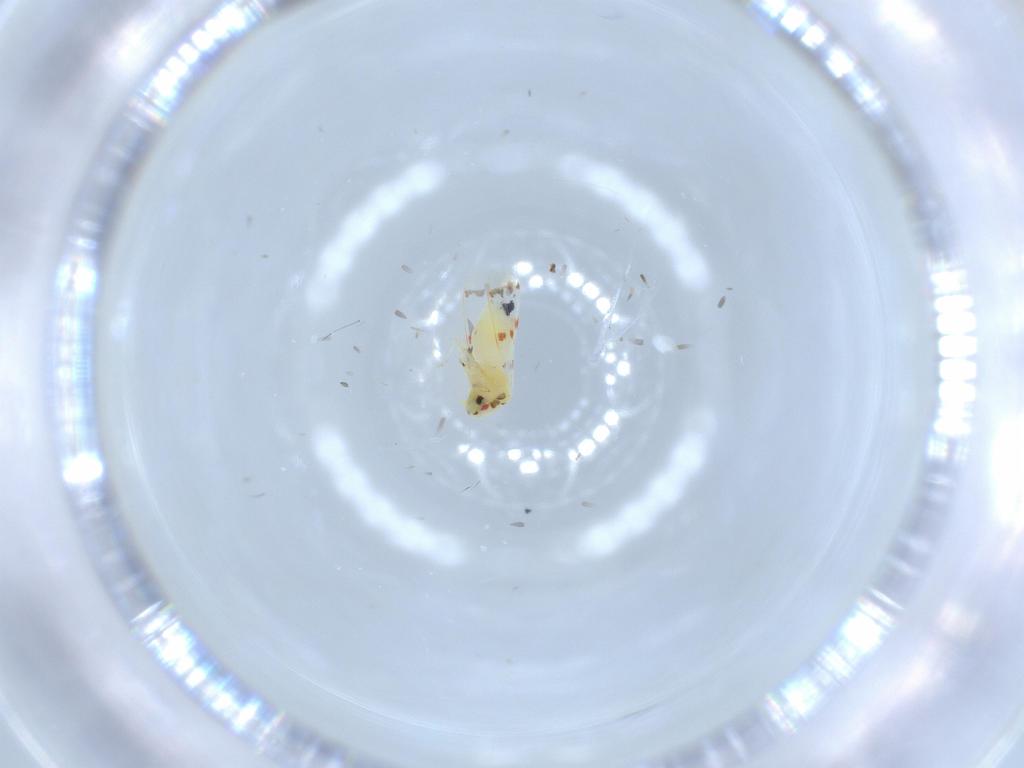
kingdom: Animalia
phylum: Arthropoda
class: Insecta
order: Hemiptera
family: Aleyrodidae
